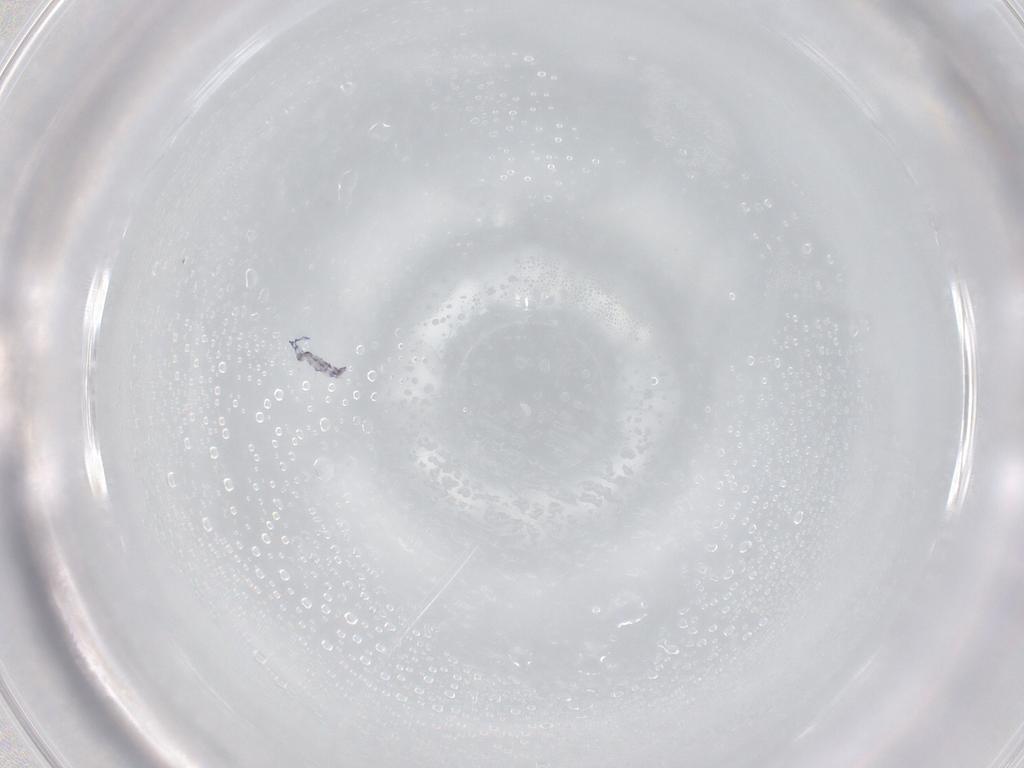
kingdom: Animalia
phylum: Arthropoda
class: Collembola
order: Entomobryomorpha
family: Entomobryidae
